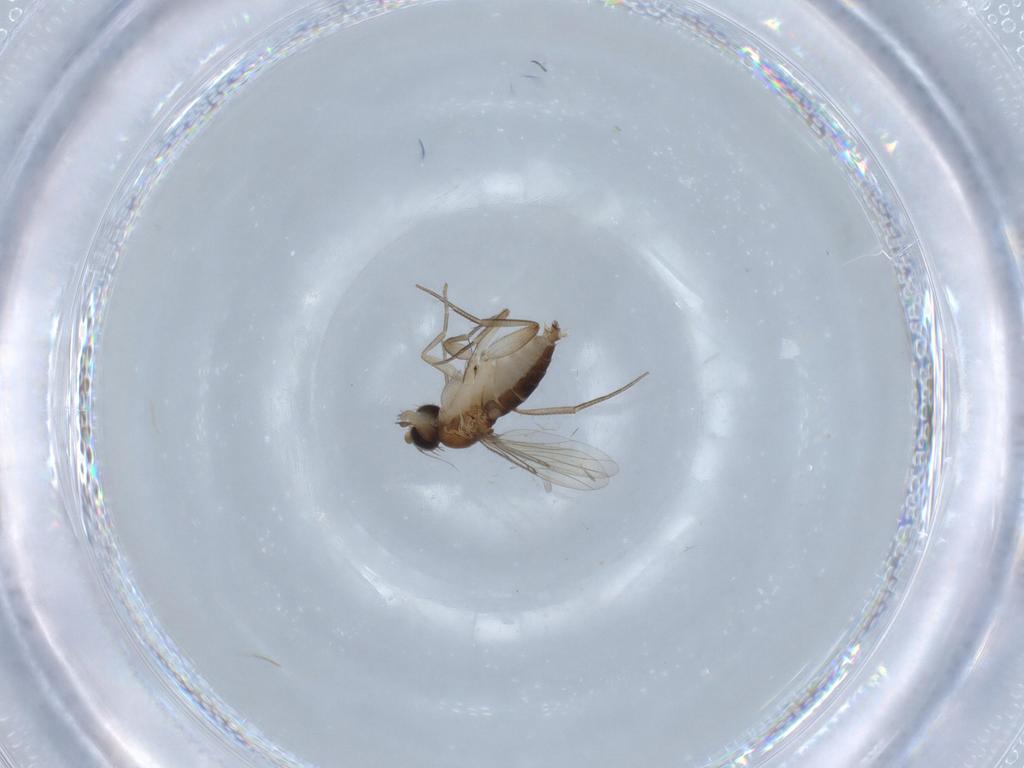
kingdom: Animalia
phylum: Arthropoda
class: Insecta
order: Diptera
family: Phoridae
